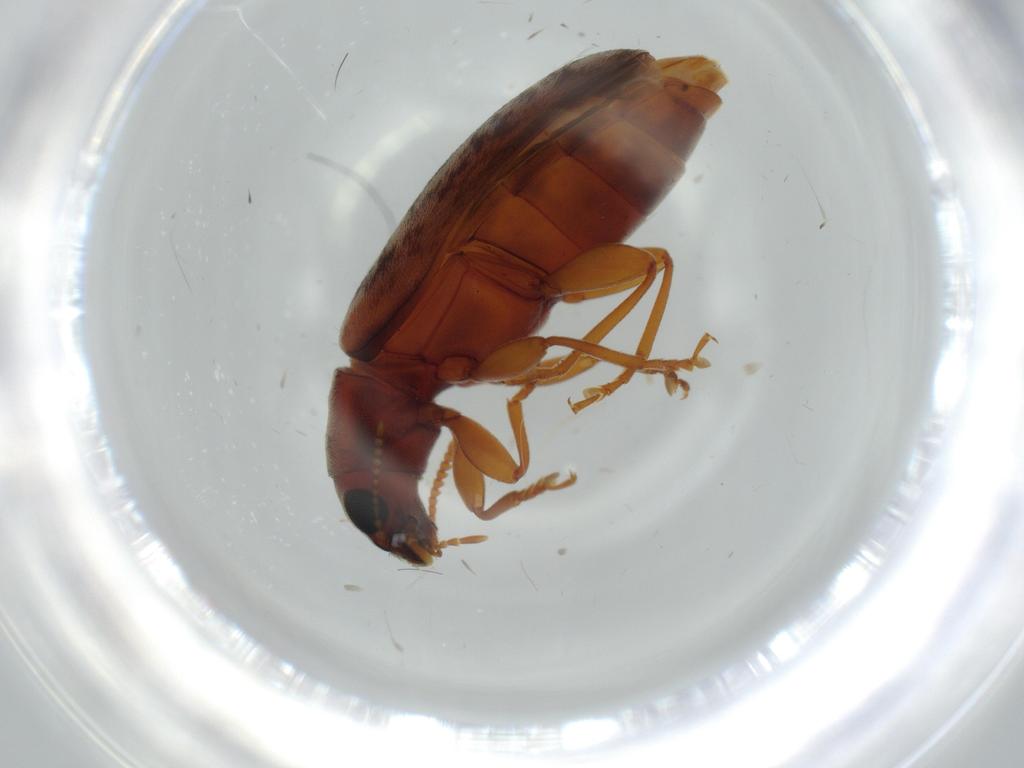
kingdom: Animalia
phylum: Arthropoda
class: Insecta
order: Coleoptera
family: Mycteridae
